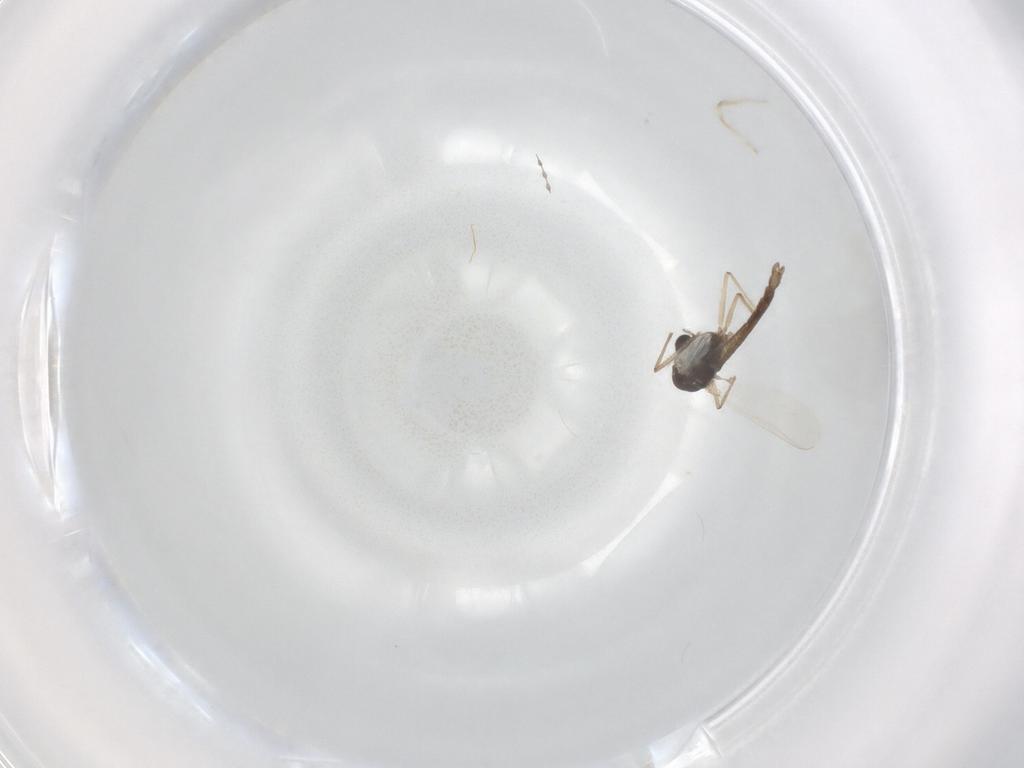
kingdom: Animalia
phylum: Arthropoda
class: Insecta
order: Diptera
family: Chironomidae
